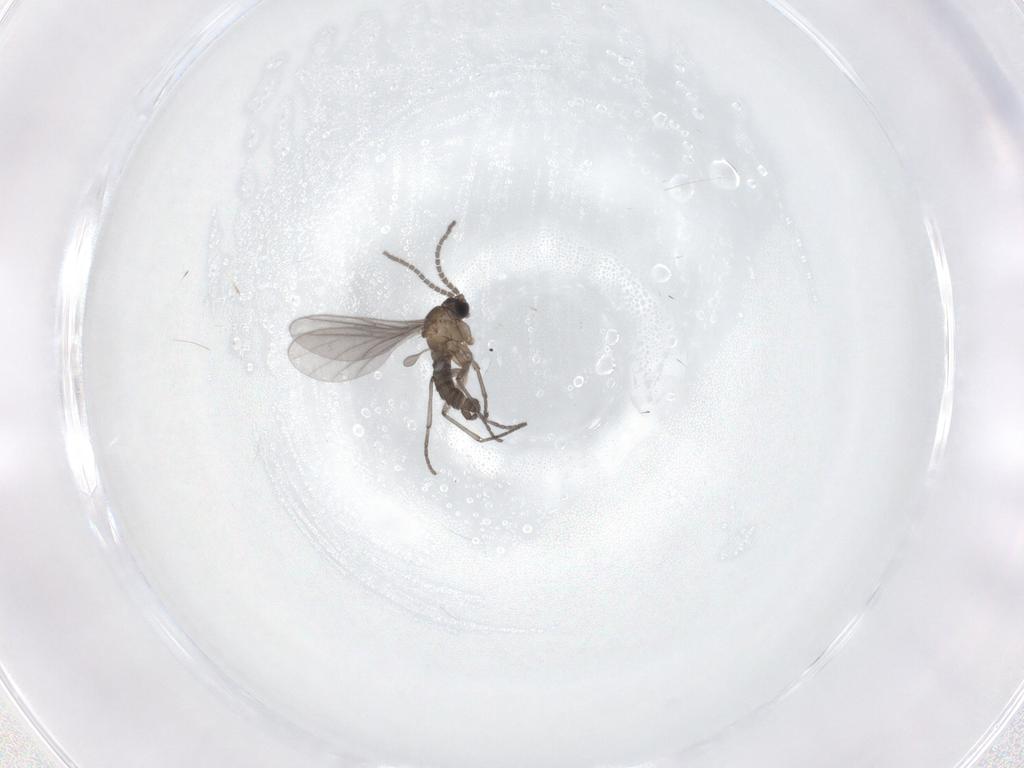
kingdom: Animalia
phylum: Arthropoda
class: Insecta
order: Diptera
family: Sciaridae
